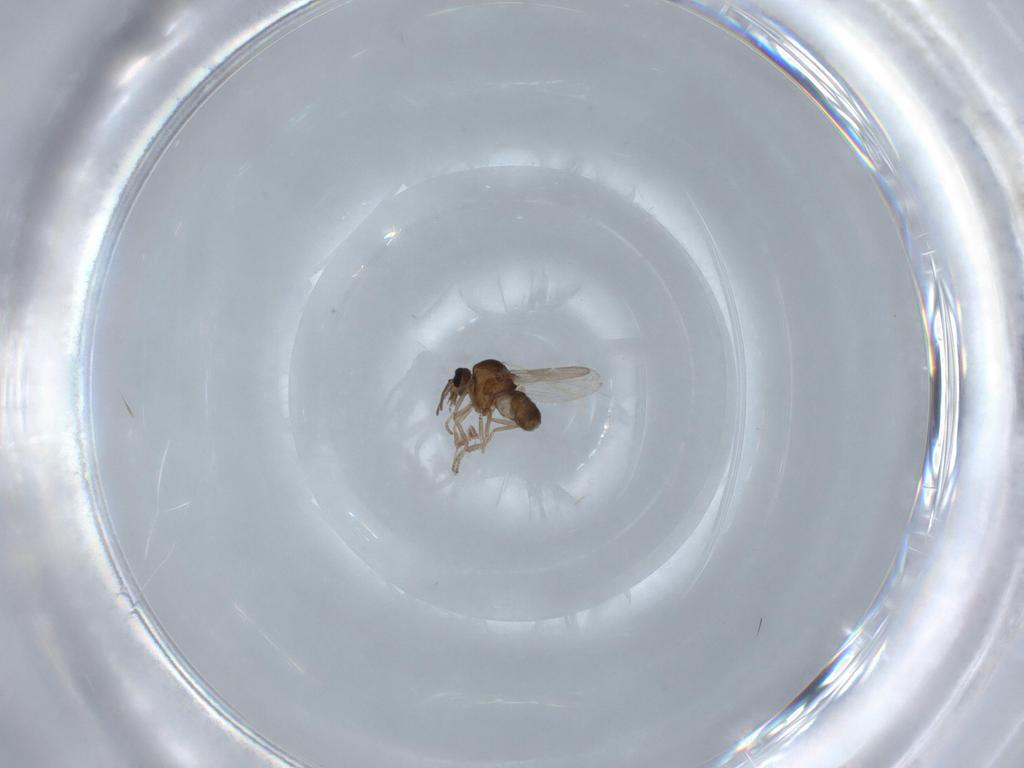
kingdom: Animalia
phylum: Arthropoda
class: Insecta
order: Diptera
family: Ceratopogonidae
